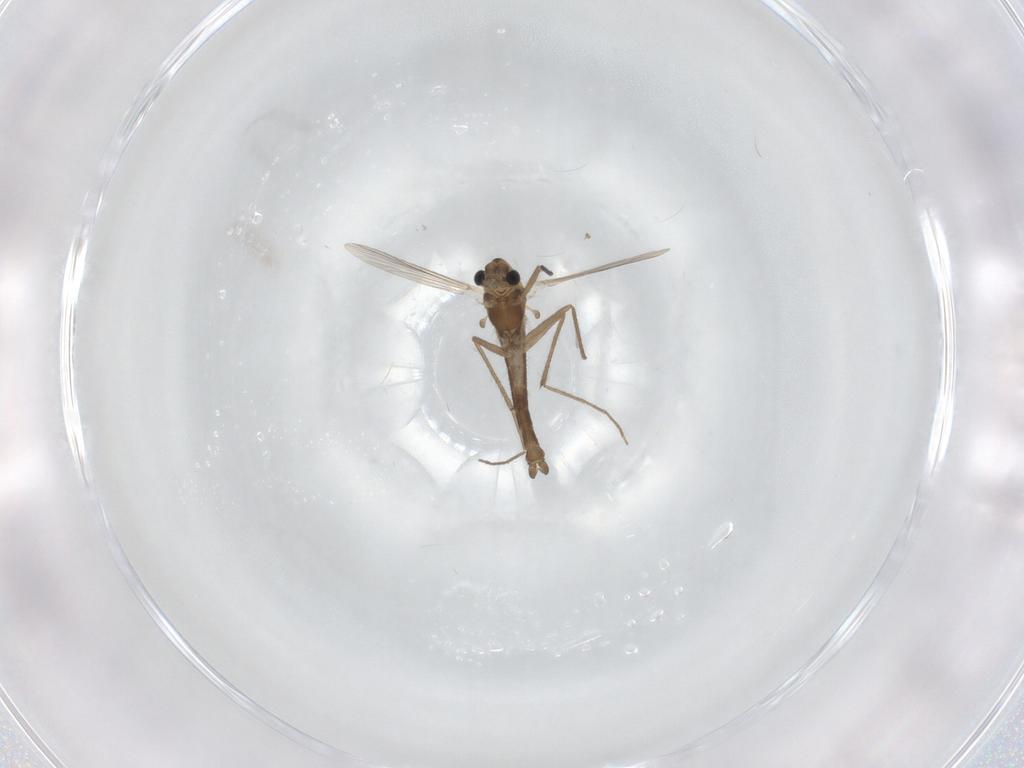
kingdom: Animalia
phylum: Arthropoda
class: Insecta
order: Diptera
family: Chironomidae
